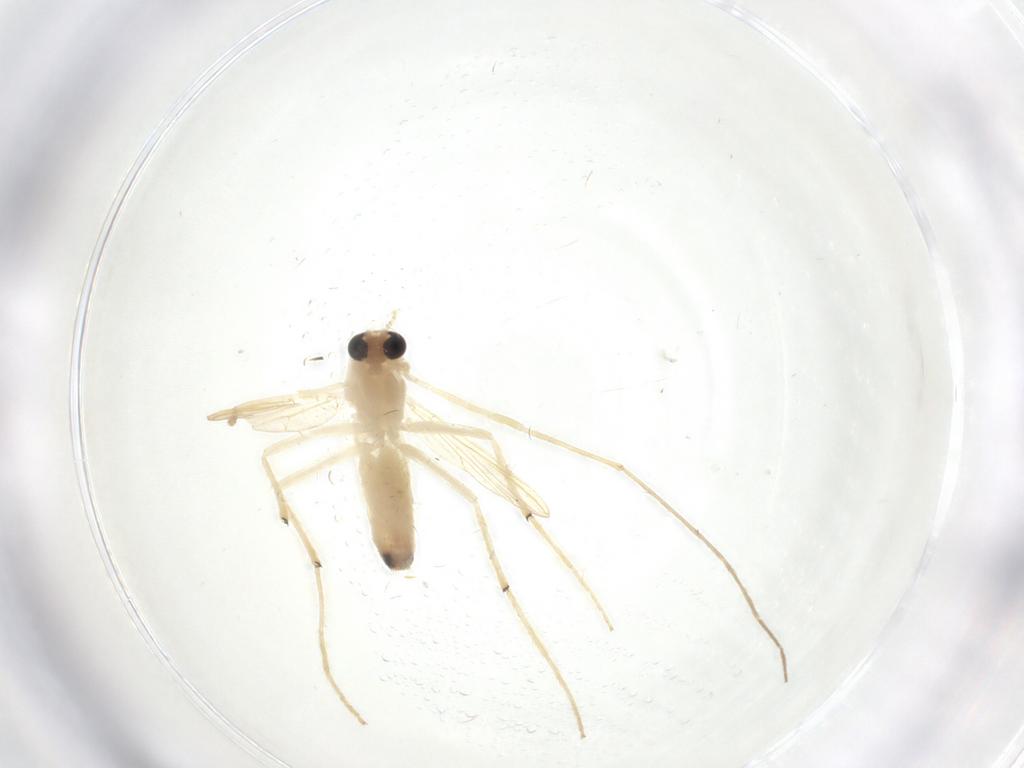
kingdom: Animalia
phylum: Arthropoda
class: Insecta
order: Diptera
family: Chironomidae
